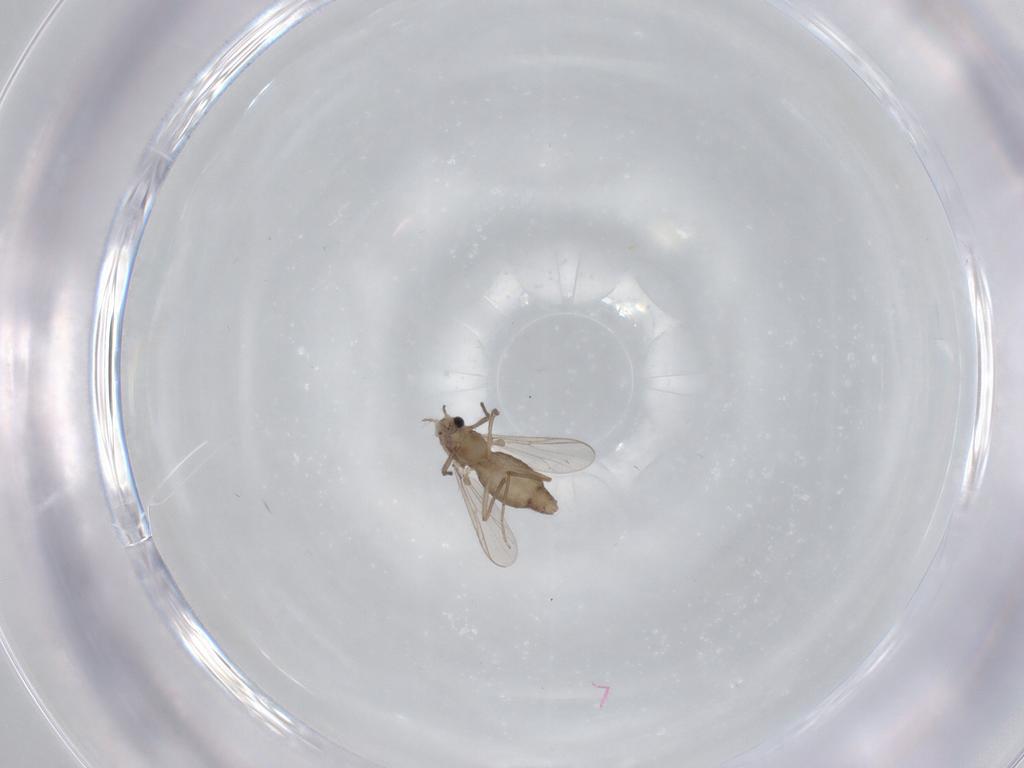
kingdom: Animalia
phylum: Arthropoda
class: Insecta
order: Diptera
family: Chironomidae
